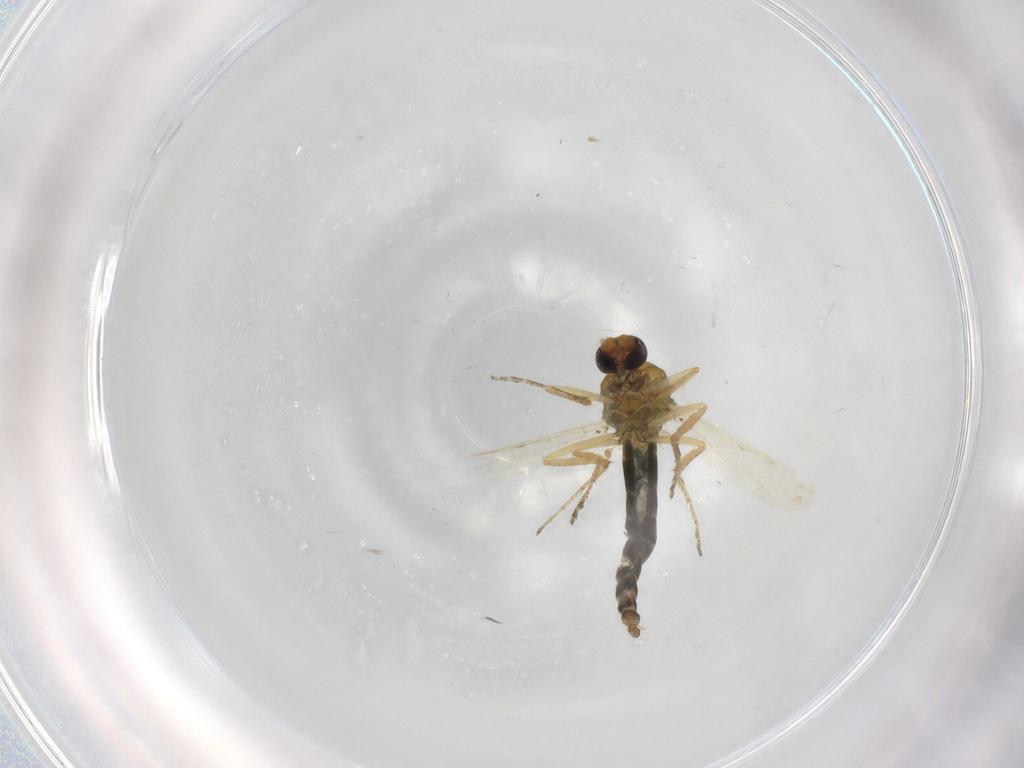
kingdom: Animalia
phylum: Arthropoda
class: Insecta
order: Diptera
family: Ceratopogonidae
